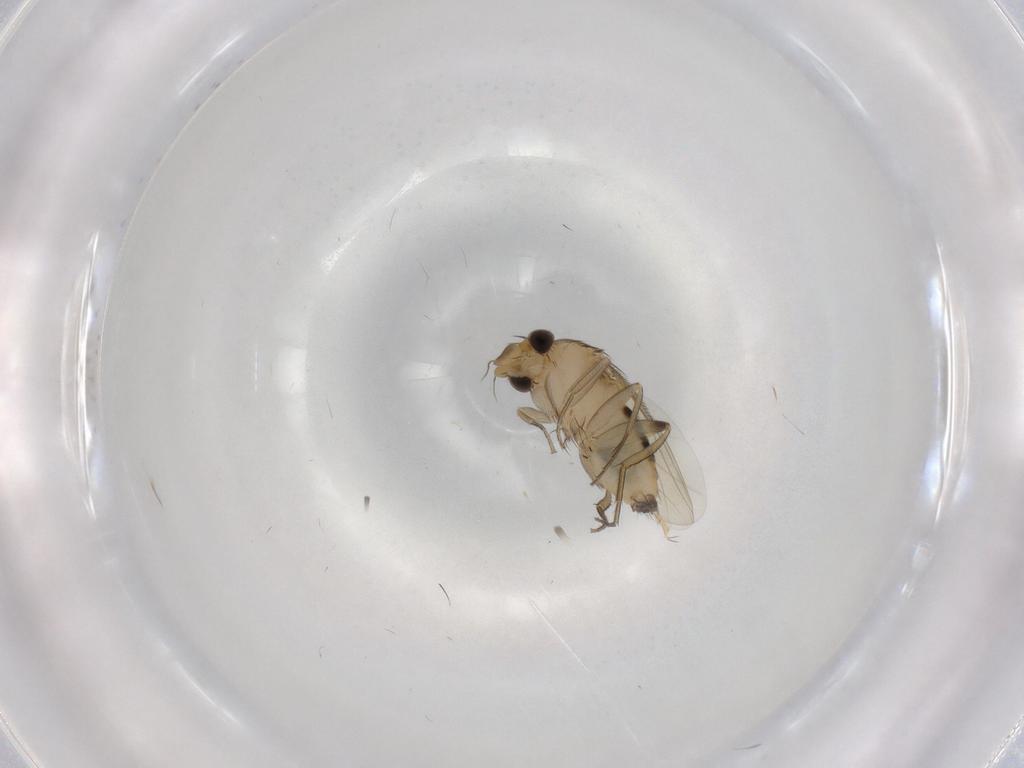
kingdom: Animalia
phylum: Arthropoda
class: Insecta
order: Diptera
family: Phoridae
